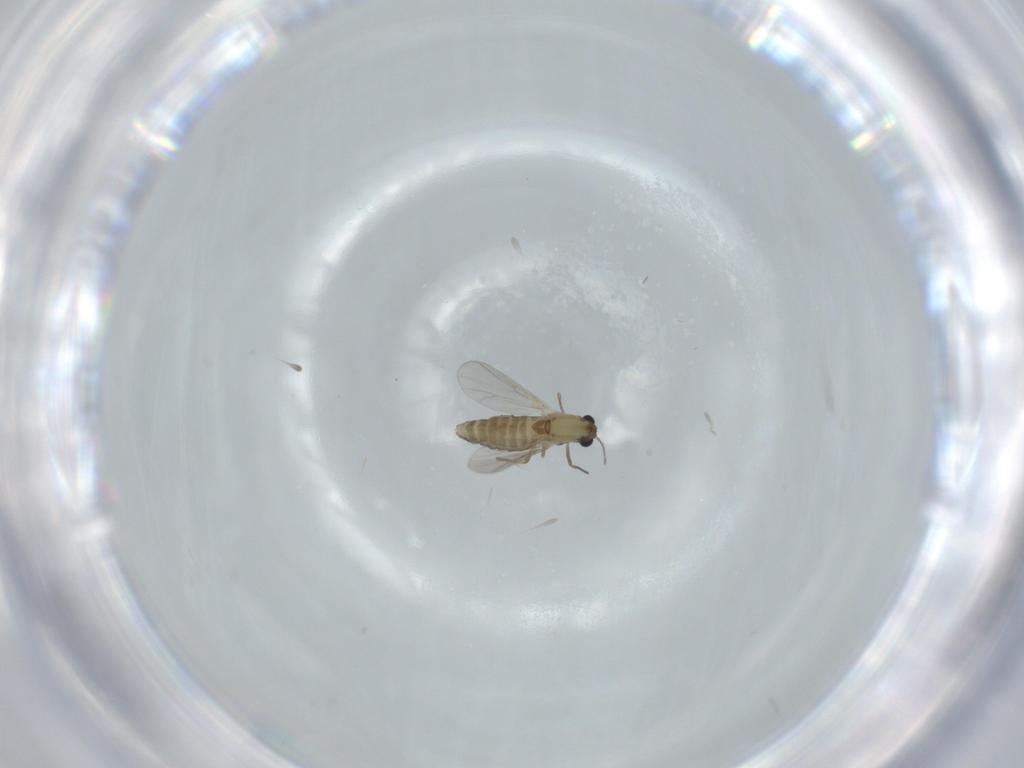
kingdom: Animalia
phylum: Arthropoda
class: Insecta
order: Diptera
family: Chironomidae
